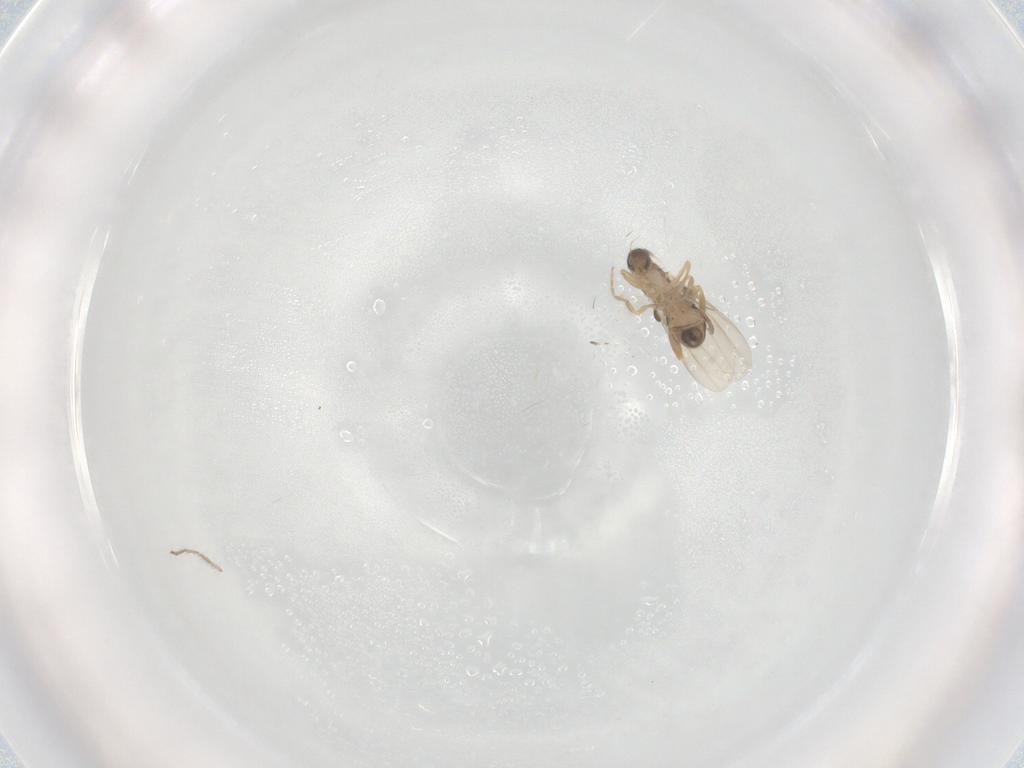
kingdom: Animalia
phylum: Arthropoda
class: Insecta
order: Diptera
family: Phoridae
